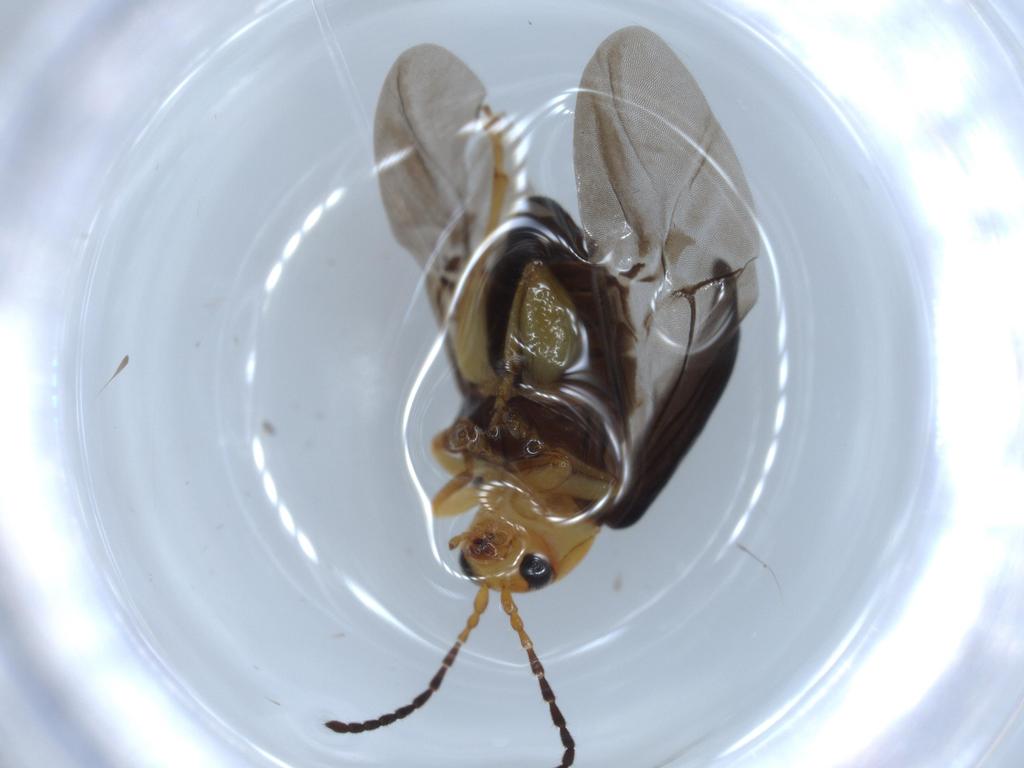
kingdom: Animalia
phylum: Arthropoda
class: Insecta
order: Coleoptera
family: Chrysomelidae
